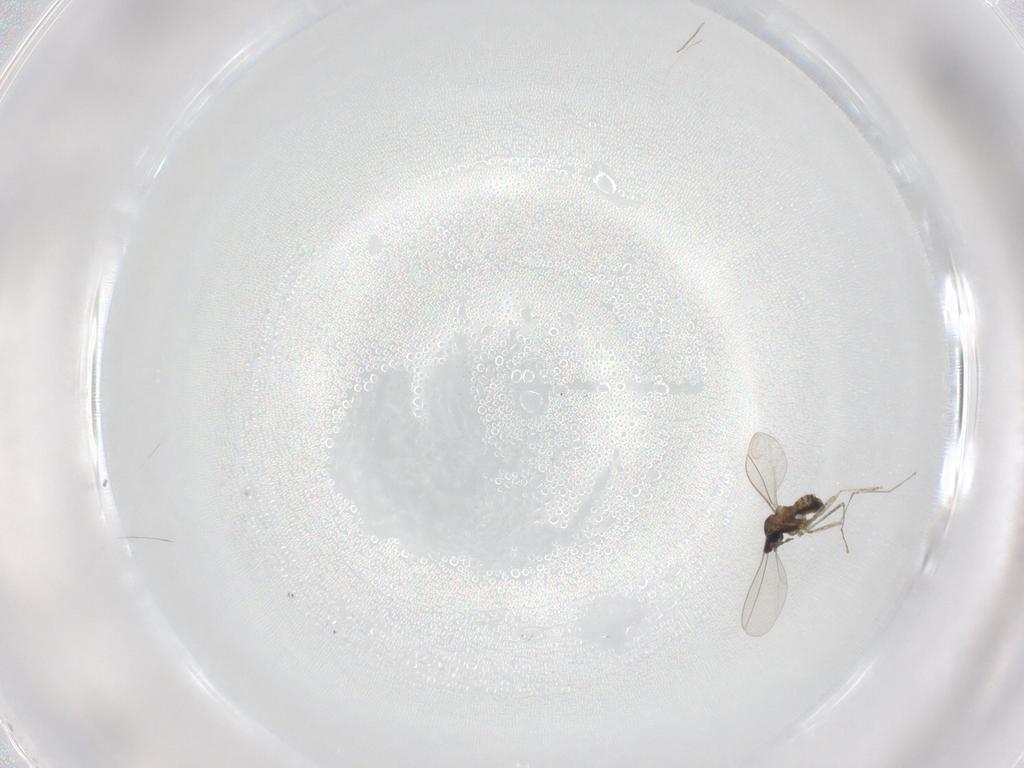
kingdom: Animalia
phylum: Arthropoda
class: Insecta
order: Diptera
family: Cecidomyiidae
